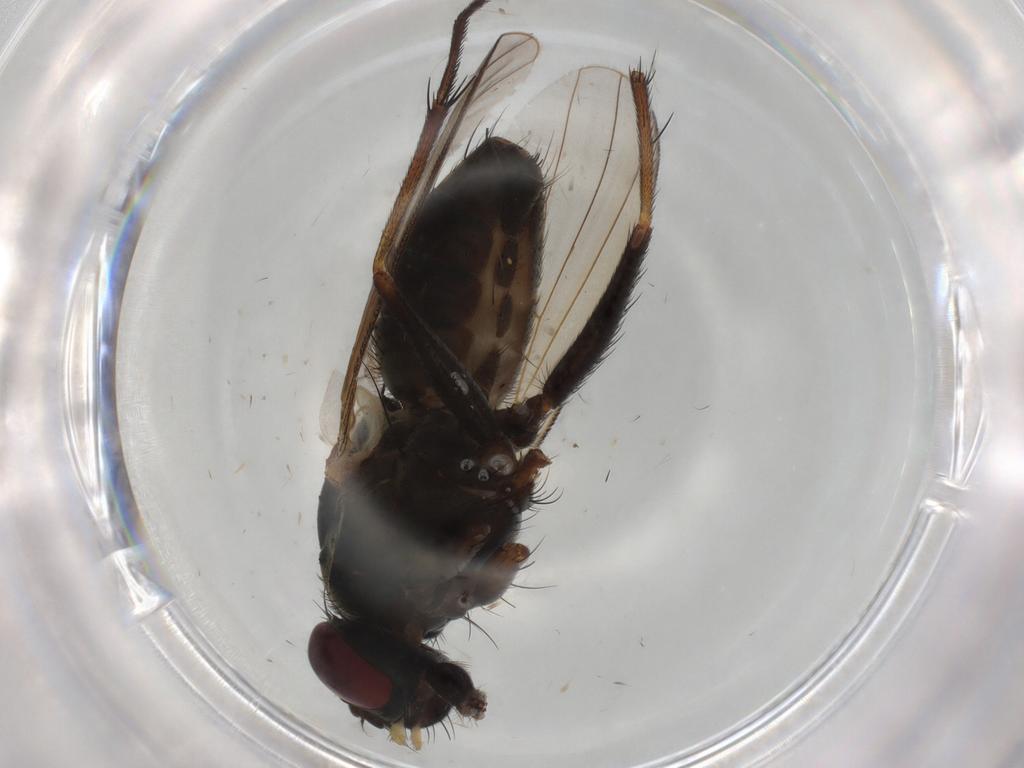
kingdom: Animalia
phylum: Arthropoda
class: Insecta
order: Diptera
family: Muscidae
